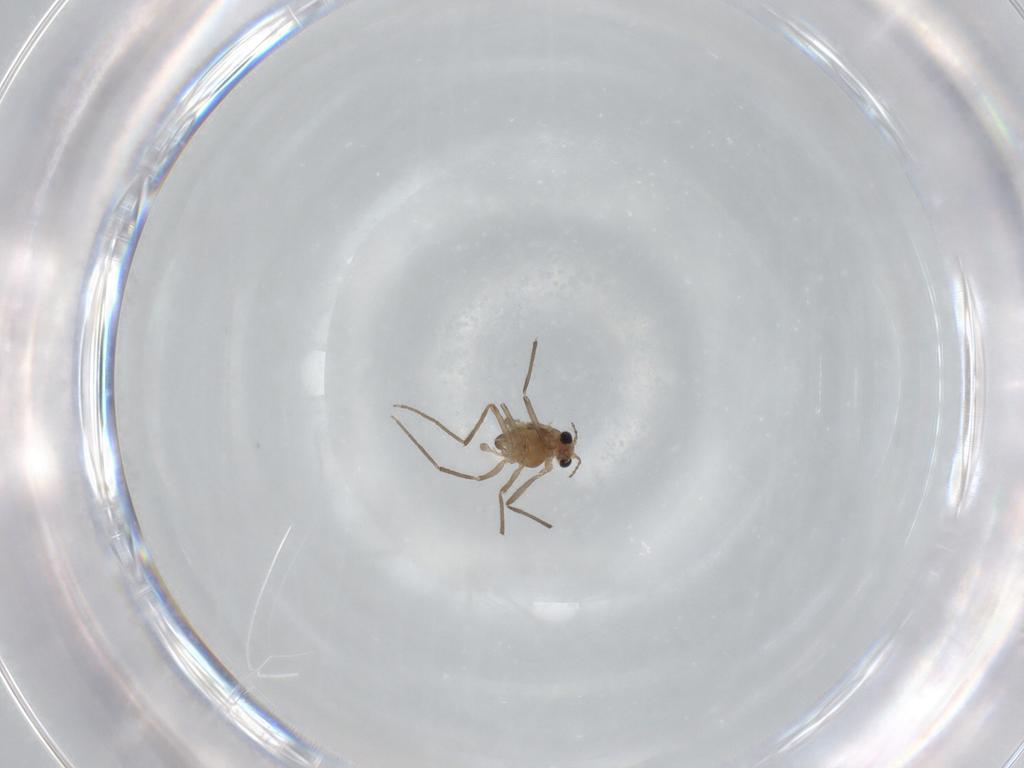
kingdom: Animalia
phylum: Arthropoda
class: Insecta
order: Diptera
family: Chironomidae
